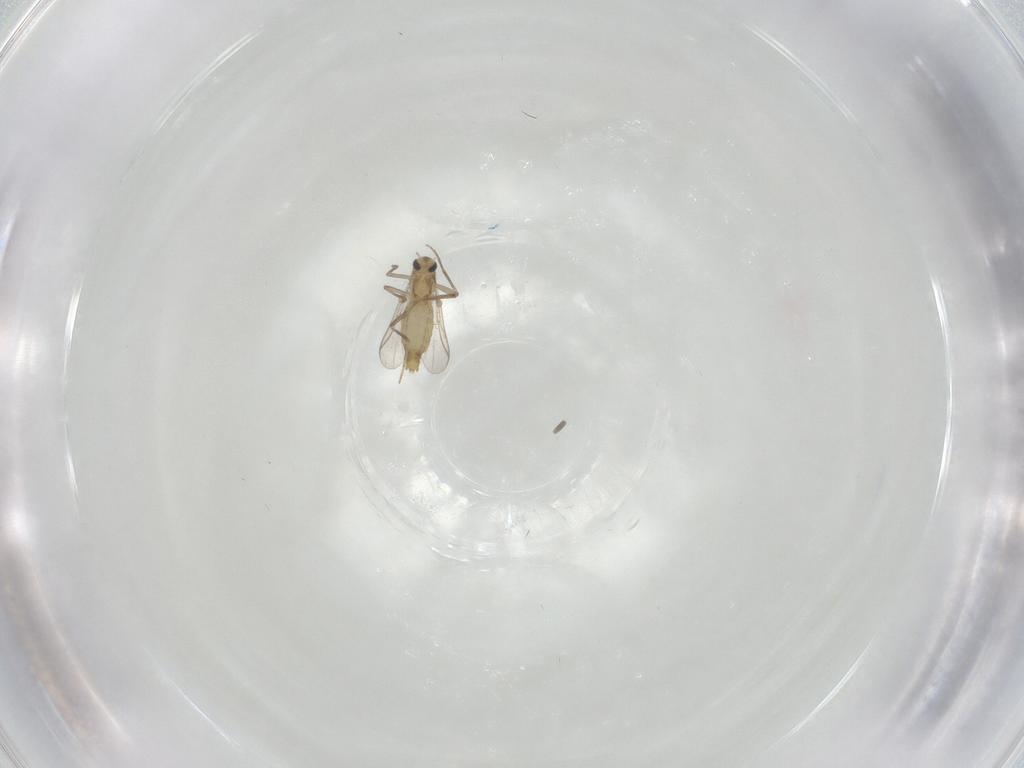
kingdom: Animalia
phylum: Arthropoda
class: Insecta
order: Diptera
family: Chironomidae
